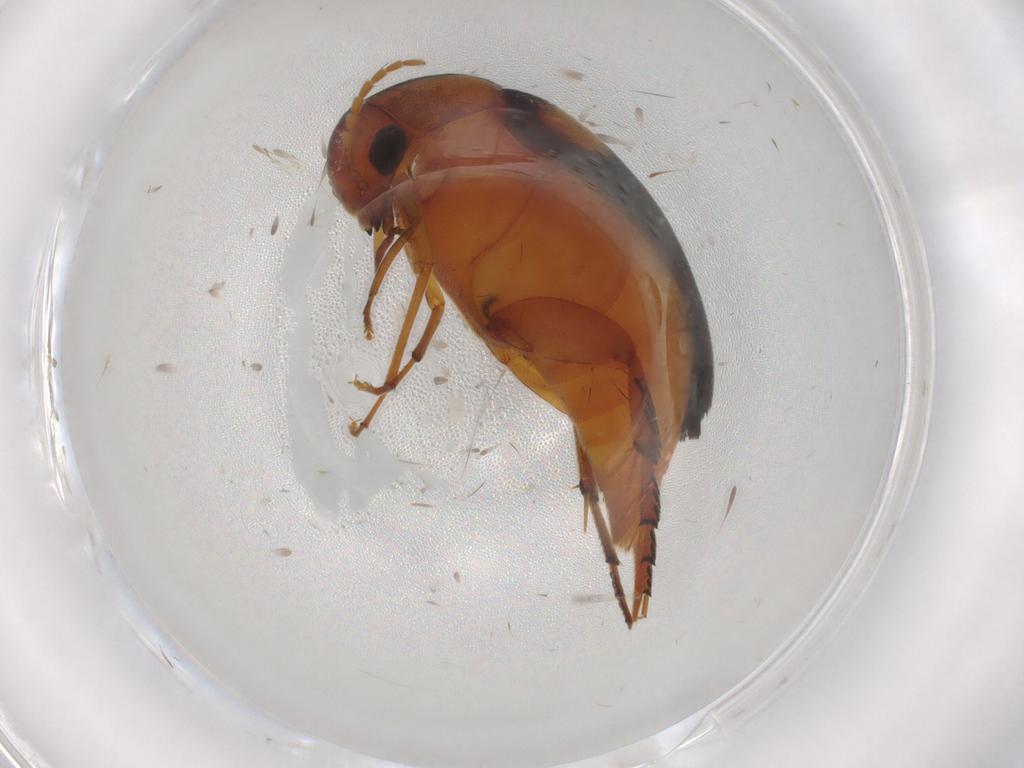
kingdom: Animalia
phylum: Arthropoda
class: Insecta
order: Coleoptera
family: Mordellidae
